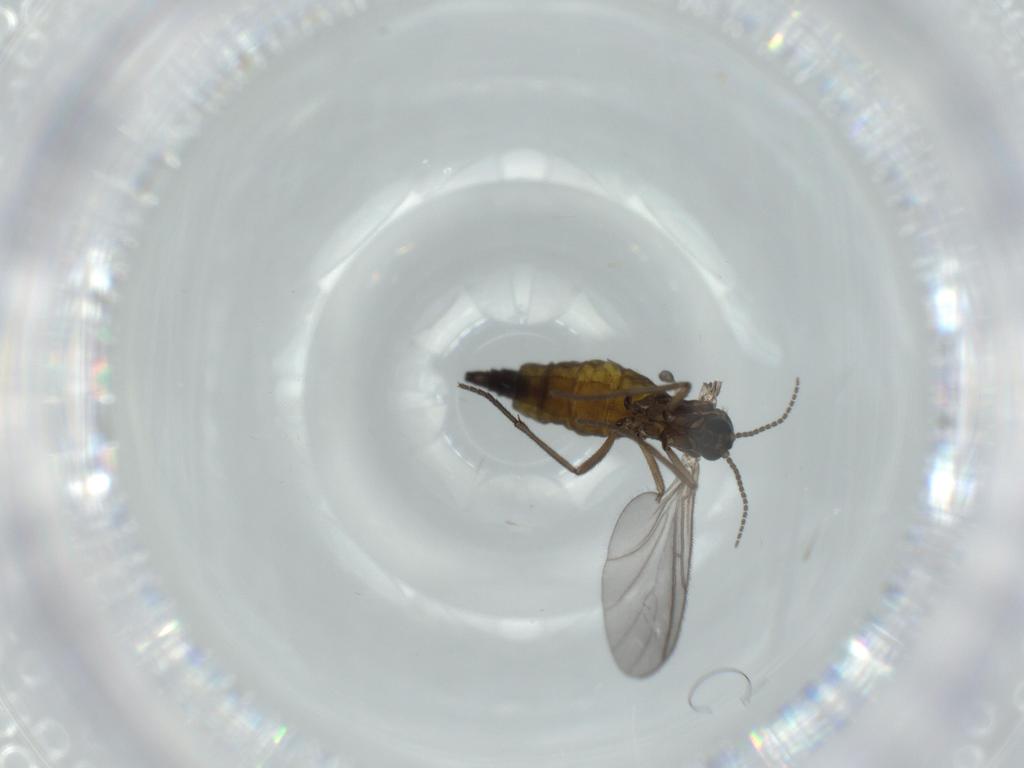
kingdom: Animalia
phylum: Arthropoda
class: Insecta
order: Diptera
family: Sciaridae
